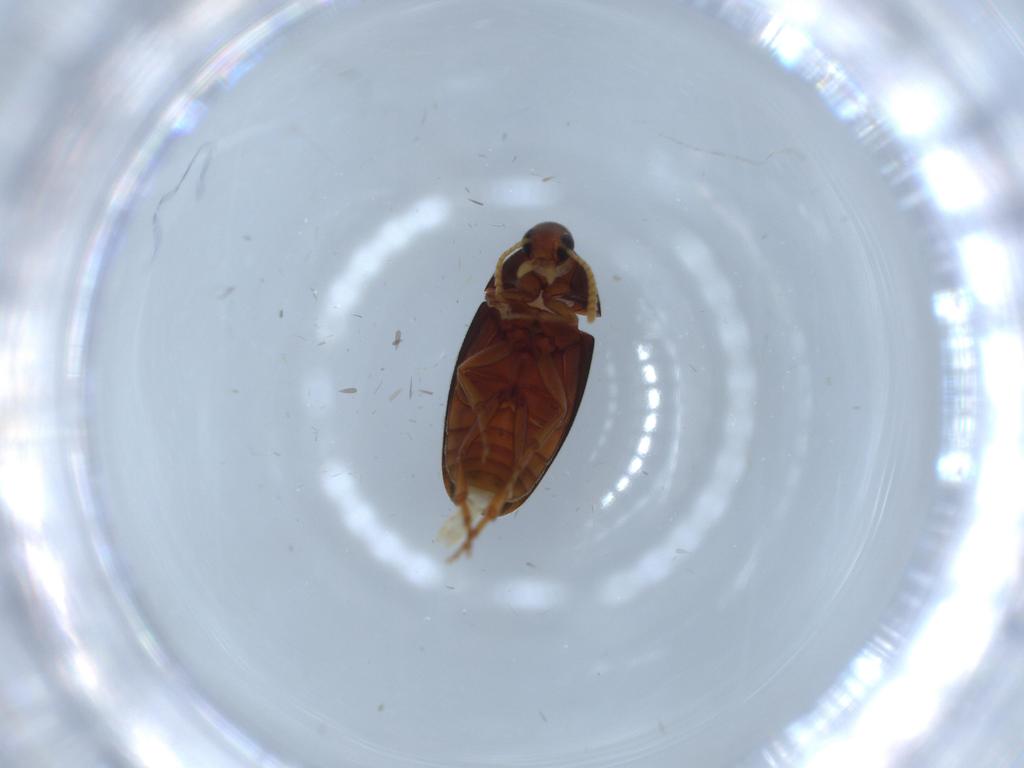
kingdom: Animalia
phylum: Arthropoda
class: Insecta
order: Coleoptera
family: Scraptiidae
